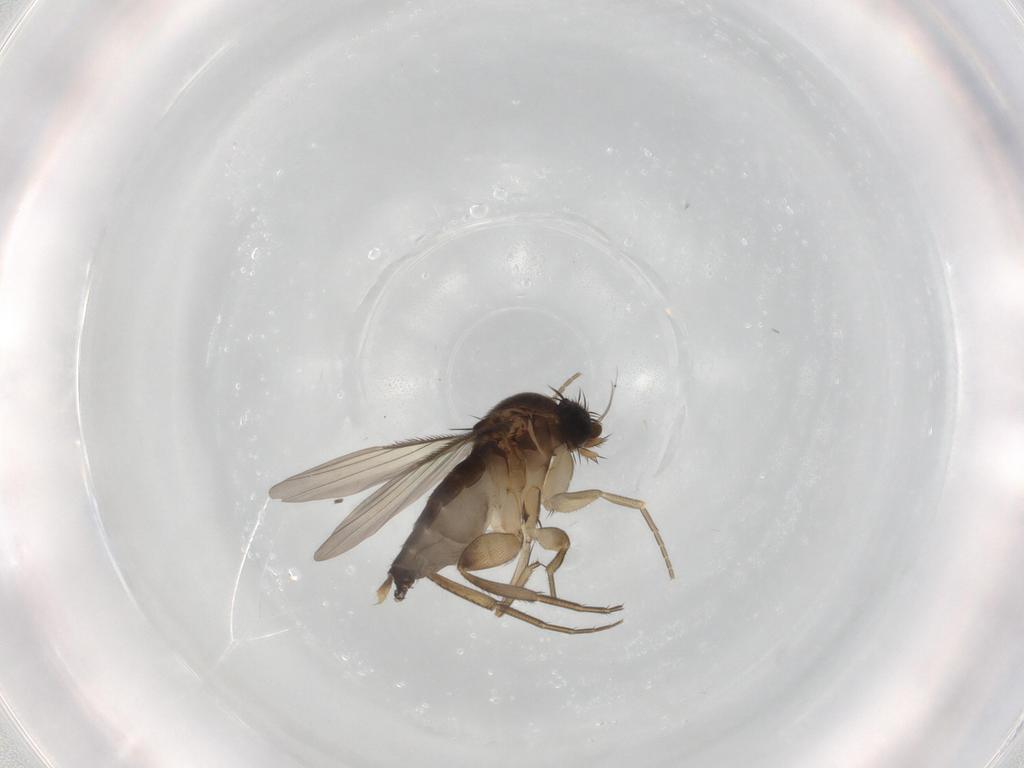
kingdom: Animalia
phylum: Arthropoda
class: Insecta
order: Diptera
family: Phoridae
